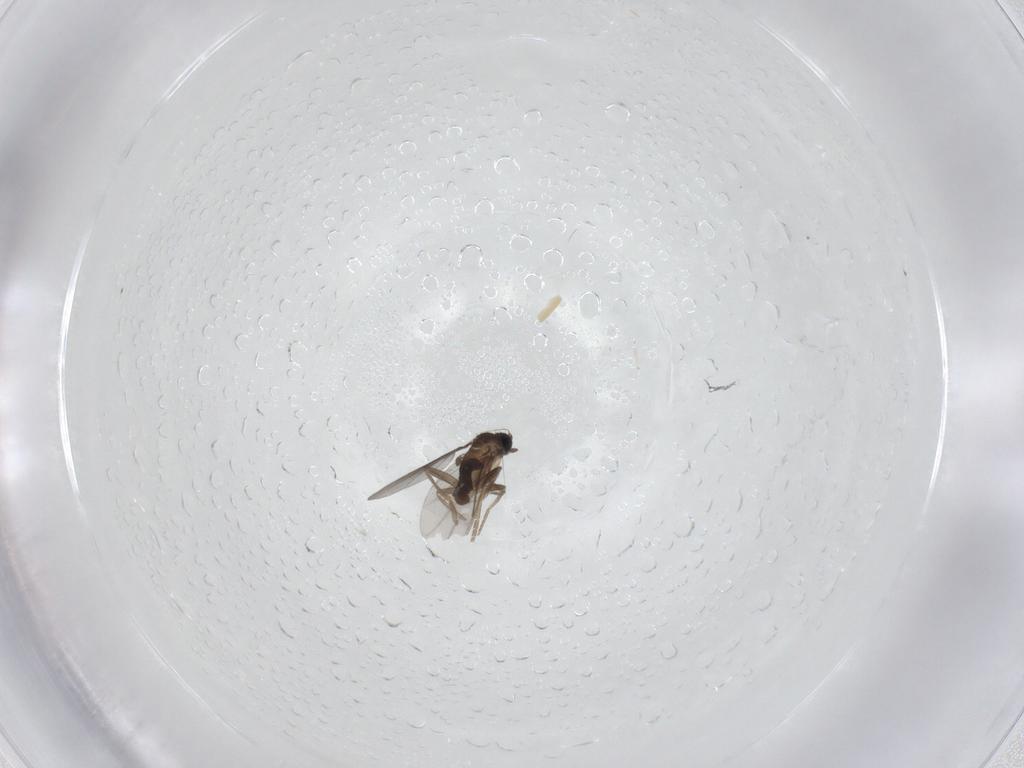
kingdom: Animalia
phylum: Arthropoda
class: Insecta
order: Diptera
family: Chironomidae
